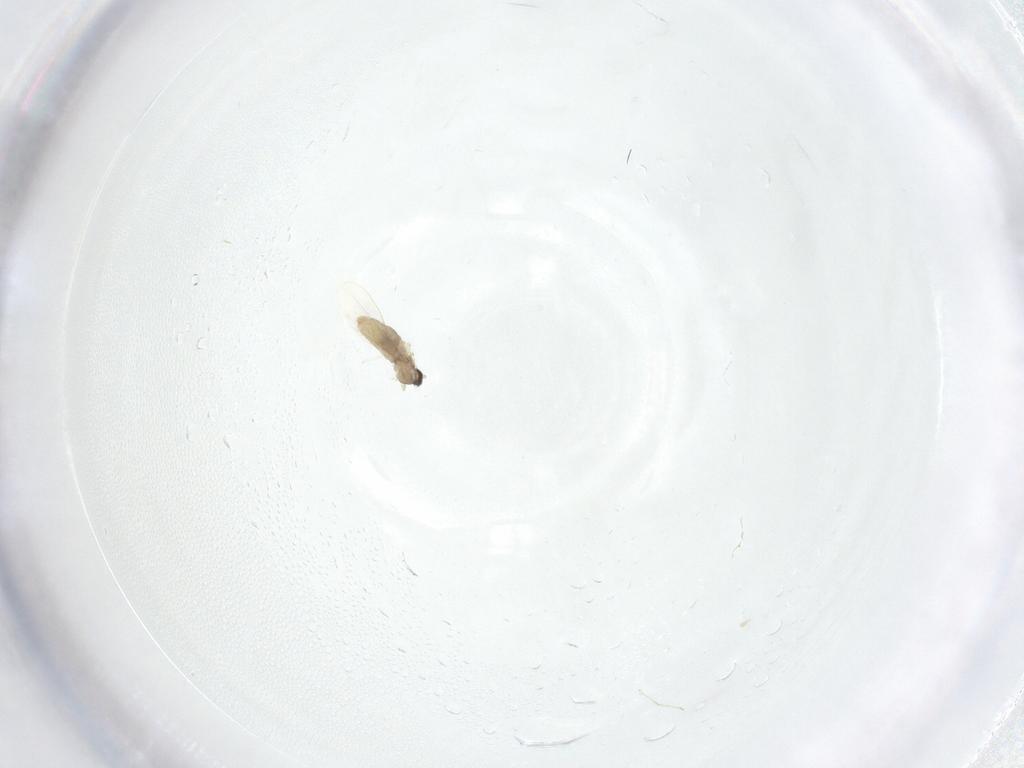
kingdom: Animalia
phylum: Arthropoda
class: Insecta
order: Diptera
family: Cecidomyiidae
